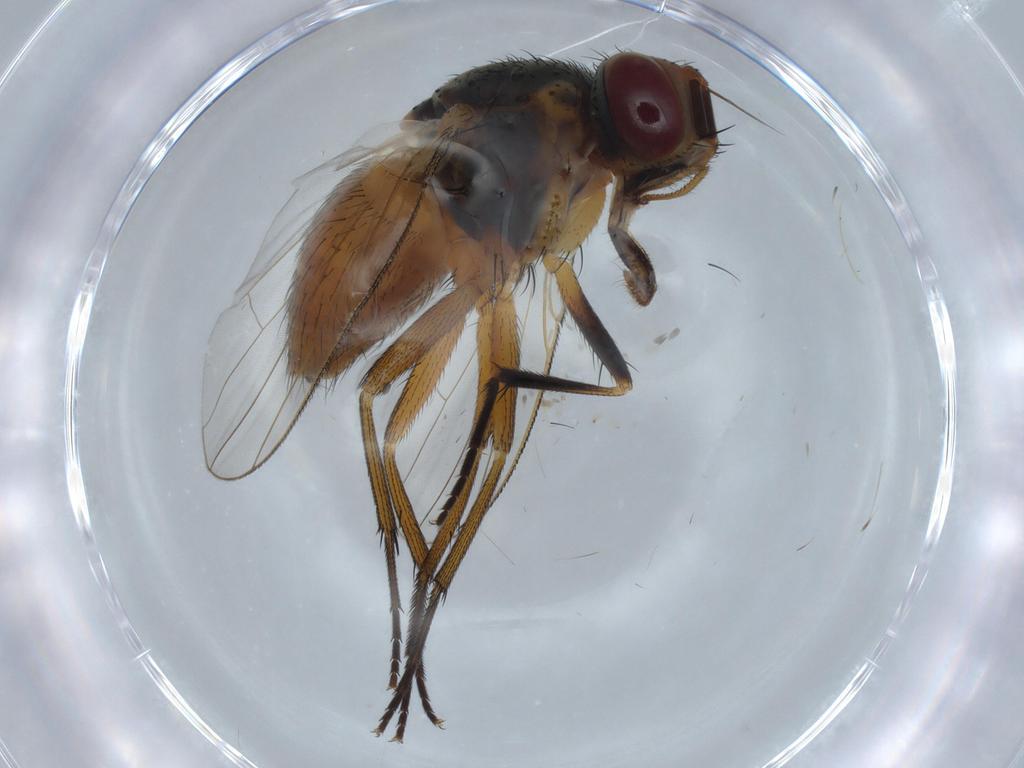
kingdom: Animalia
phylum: Arthropoda
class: Insecta
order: Diptera
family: Muscidae
